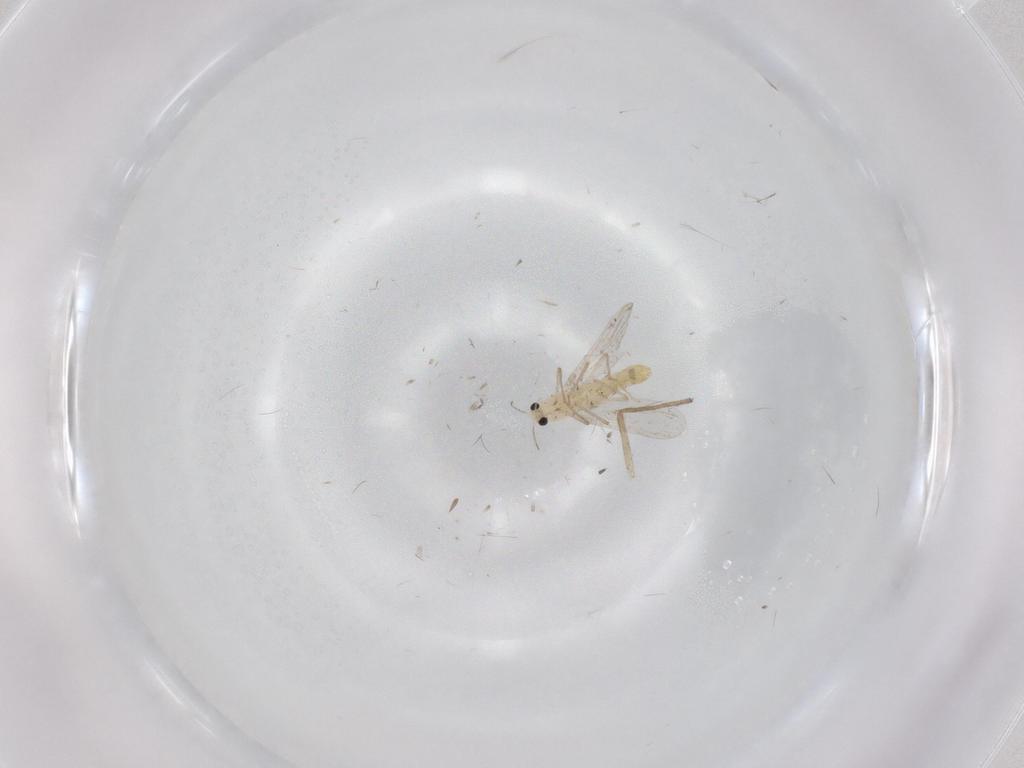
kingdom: Animalia
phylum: Arthropoda
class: Insecta
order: Diptera
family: Chironomidae
